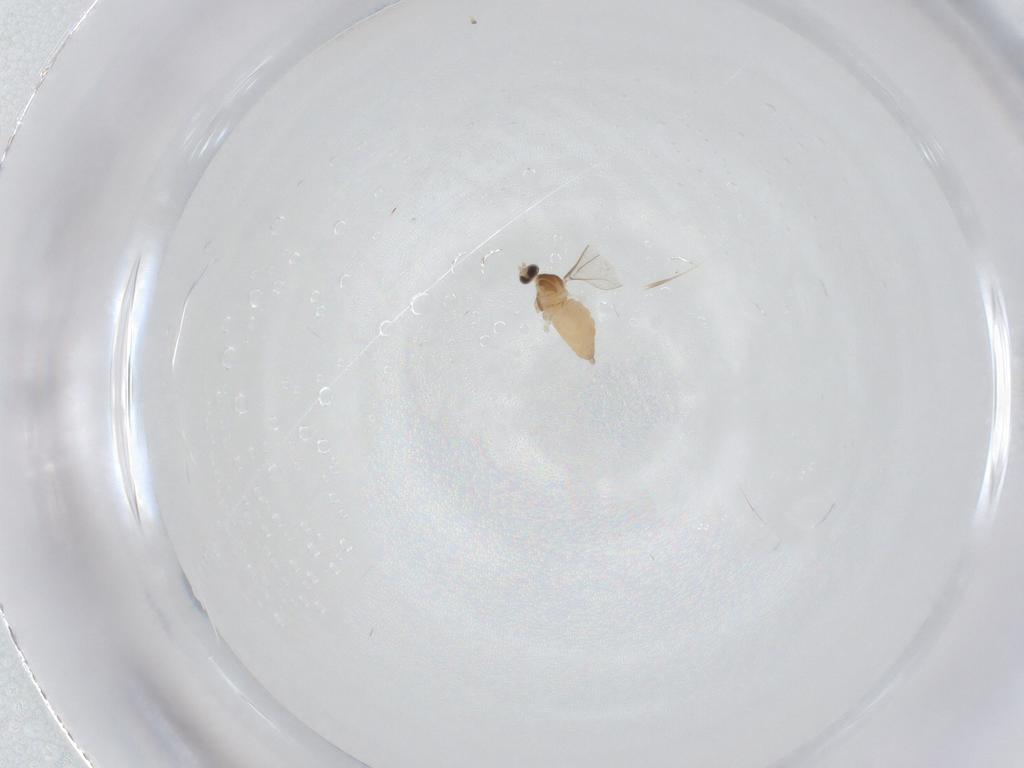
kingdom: Animalia
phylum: Arthropoda
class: Insecta
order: Diptera
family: Cecidomyiidae
